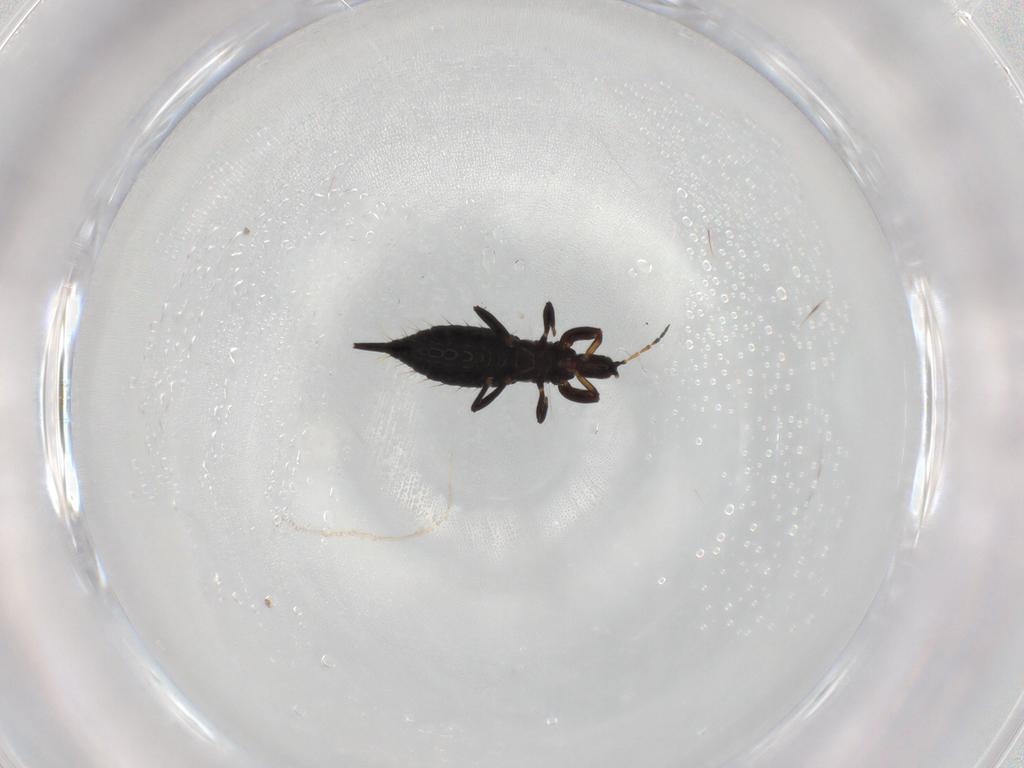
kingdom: Animalia
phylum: Arthropoda
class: Insecta
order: Thysanoptera
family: Phlaeothripidae
